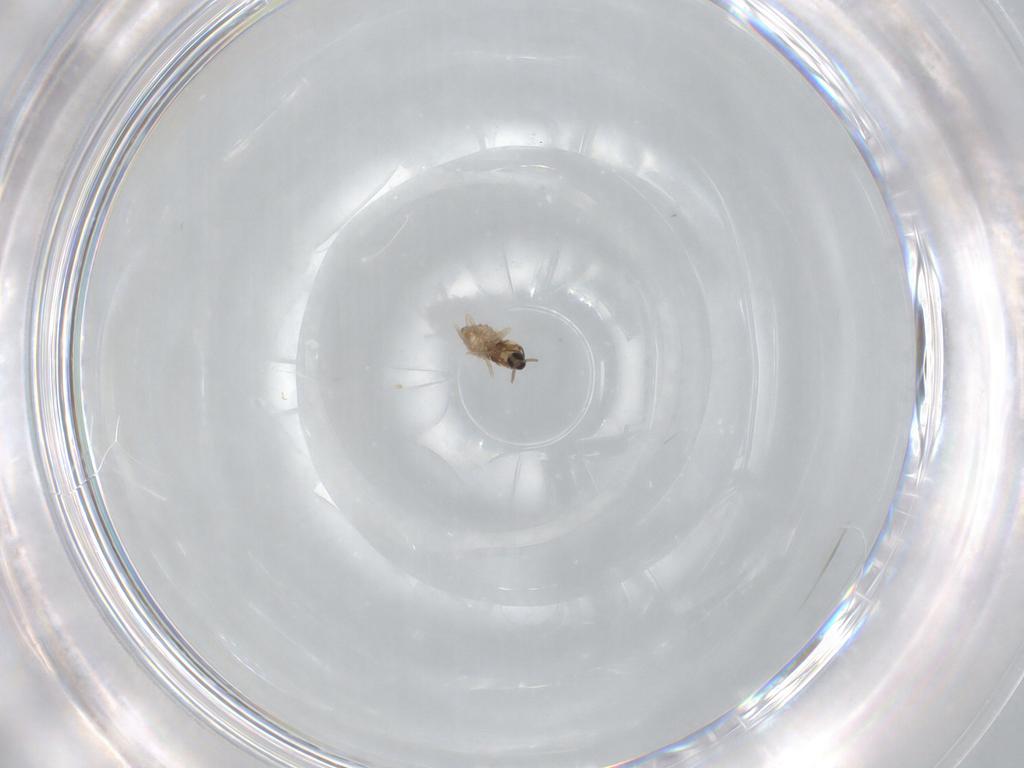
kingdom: Animalia
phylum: Arthropoda
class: Insecta
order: Diptera
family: Cecidomyiidae
